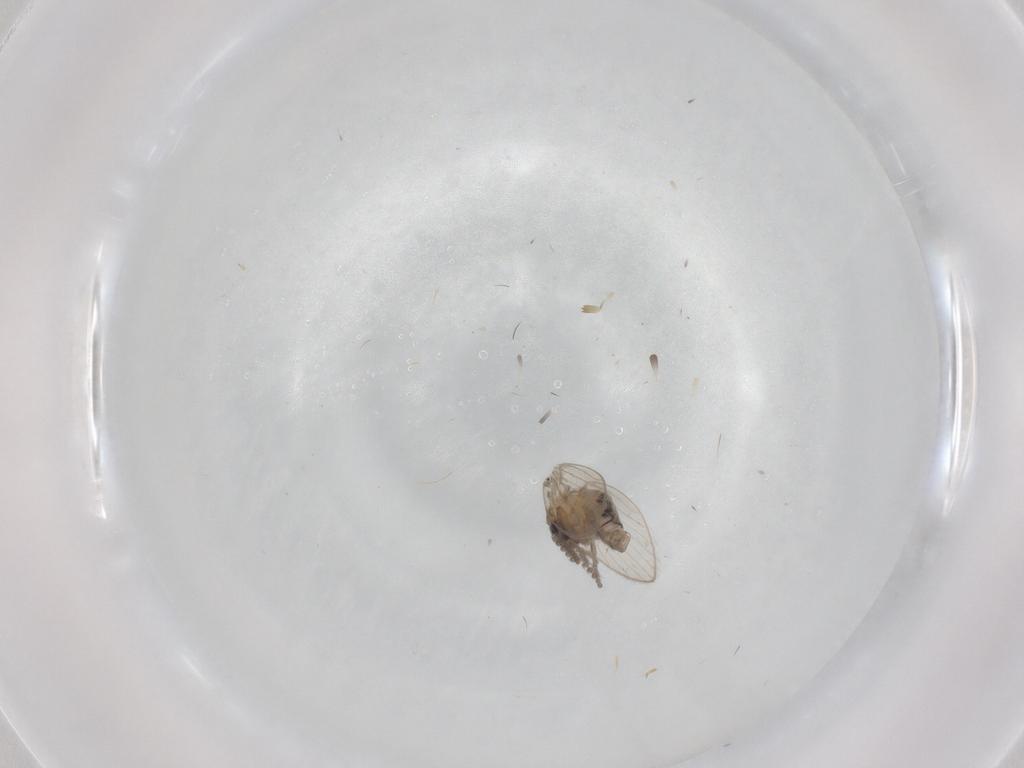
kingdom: Animalia
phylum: Arthropoda
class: Insecta
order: Diptera
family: Psychodidae
